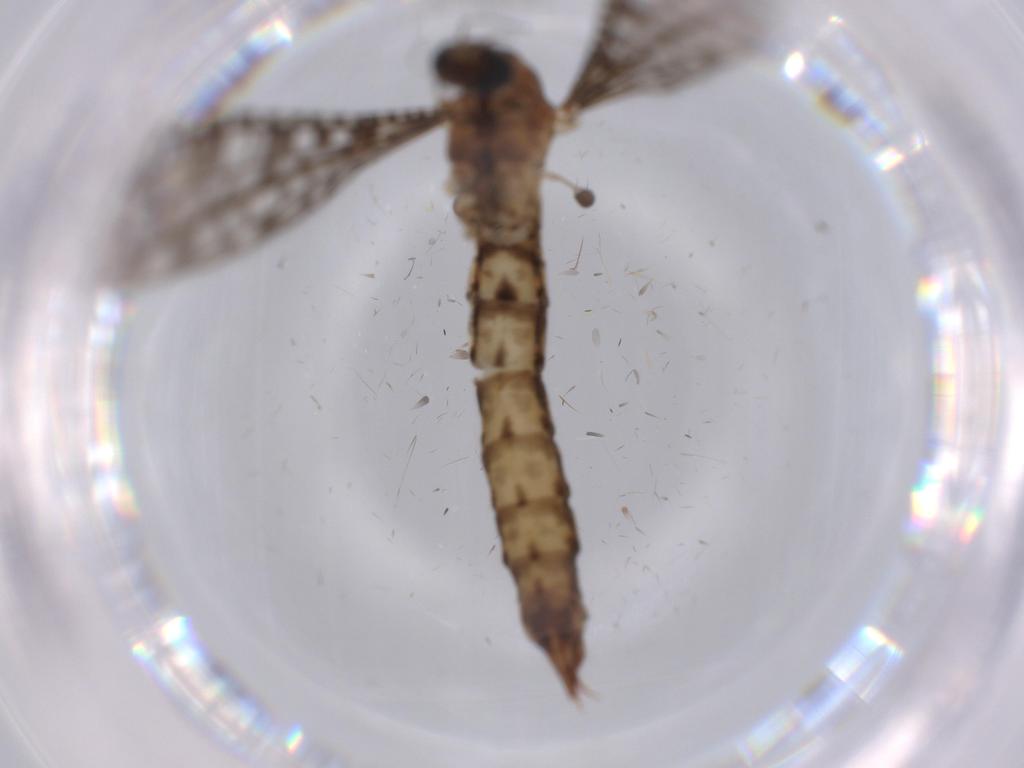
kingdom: Animalia
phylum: Arthropoda
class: Insecta
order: Diptera
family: Ceratopogonidae
